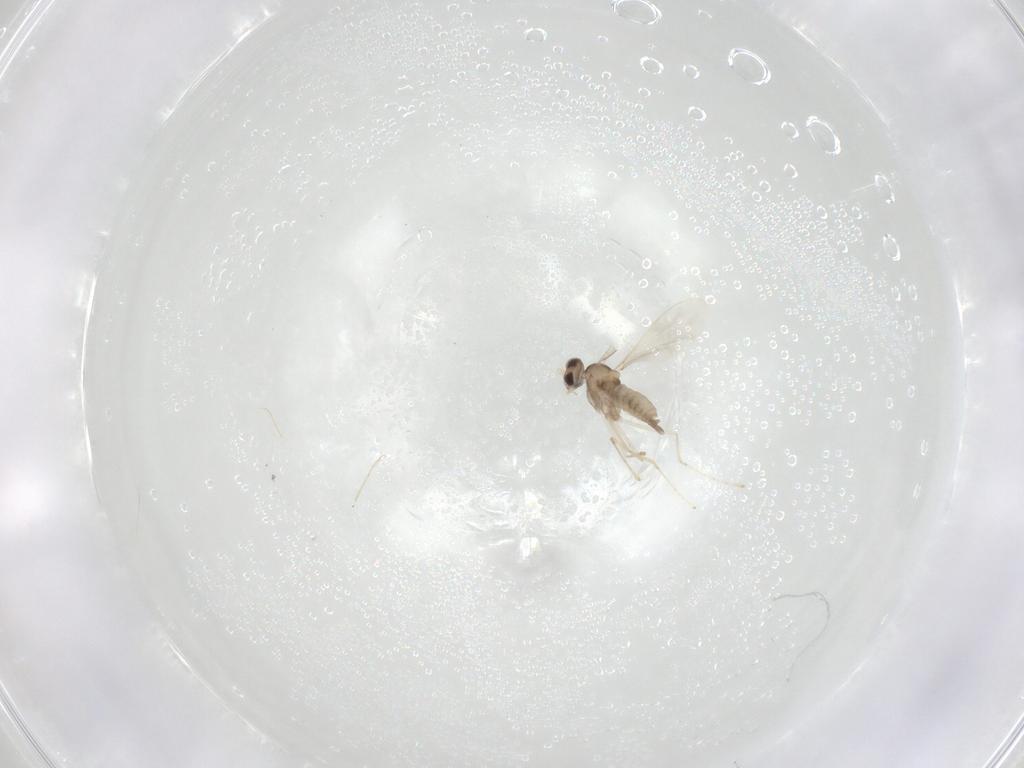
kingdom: Animalia
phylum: Arthropoda
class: Insecta
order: Diptera
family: Cecidomyiidae
